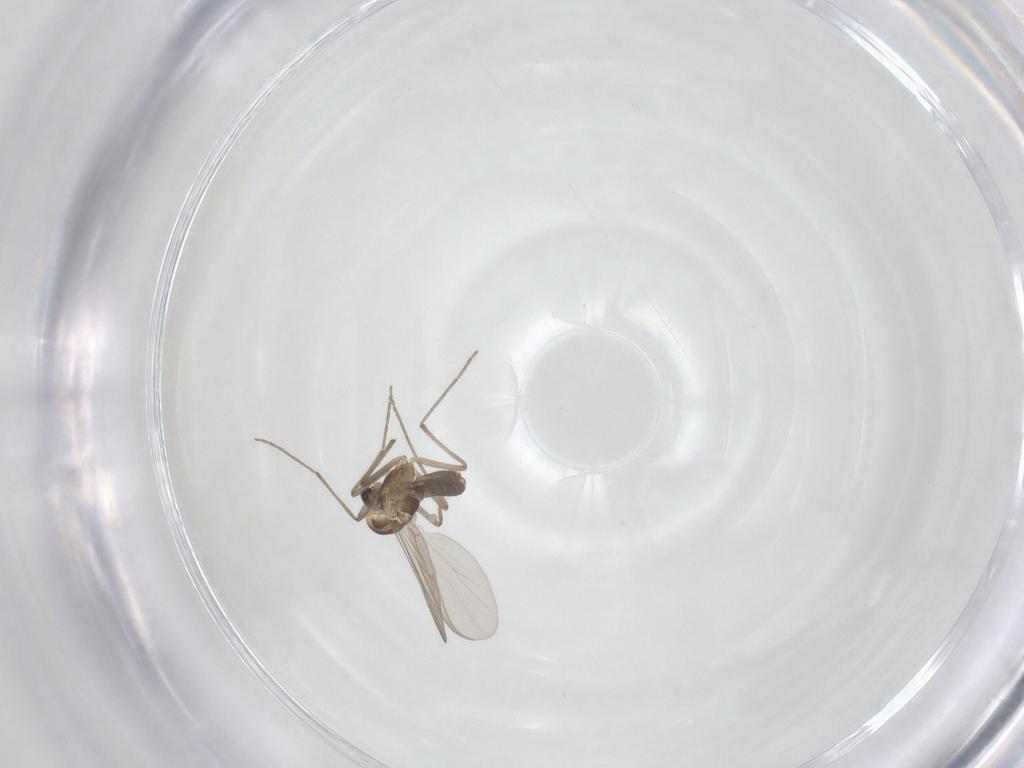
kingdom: Animalia
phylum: Arthropoda
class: Insecta
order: Diptera
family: Chironomidae
